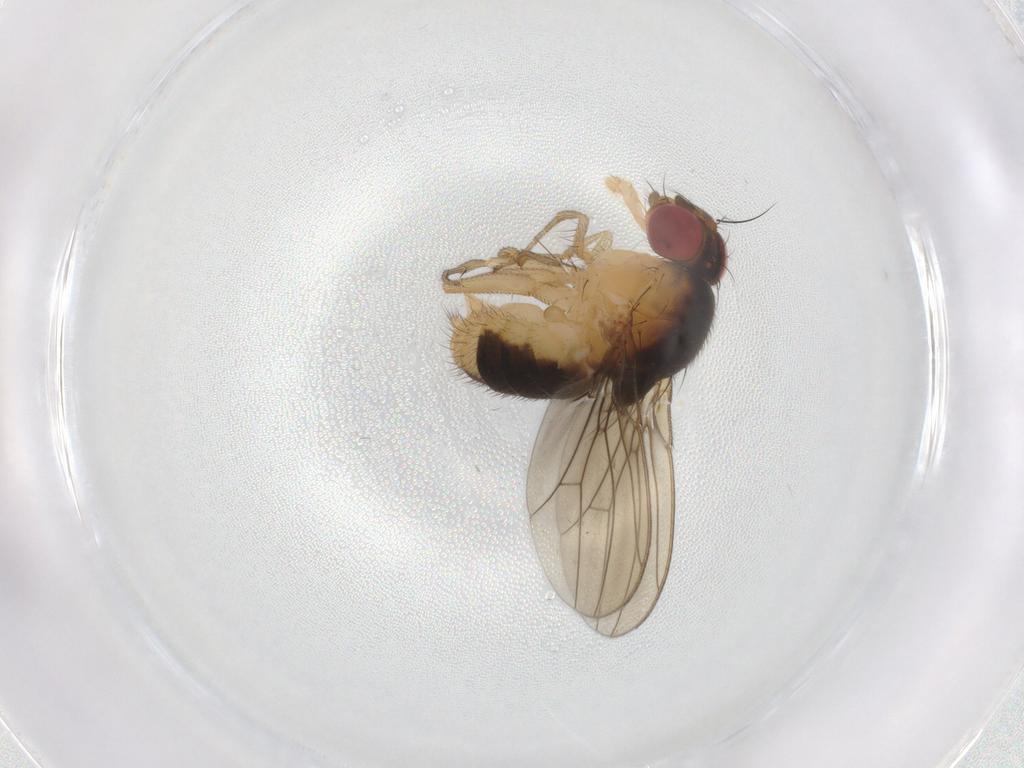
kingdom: Animalia
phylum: Arthropoda
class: Insecta
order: Diptera
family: Drosophilidae
